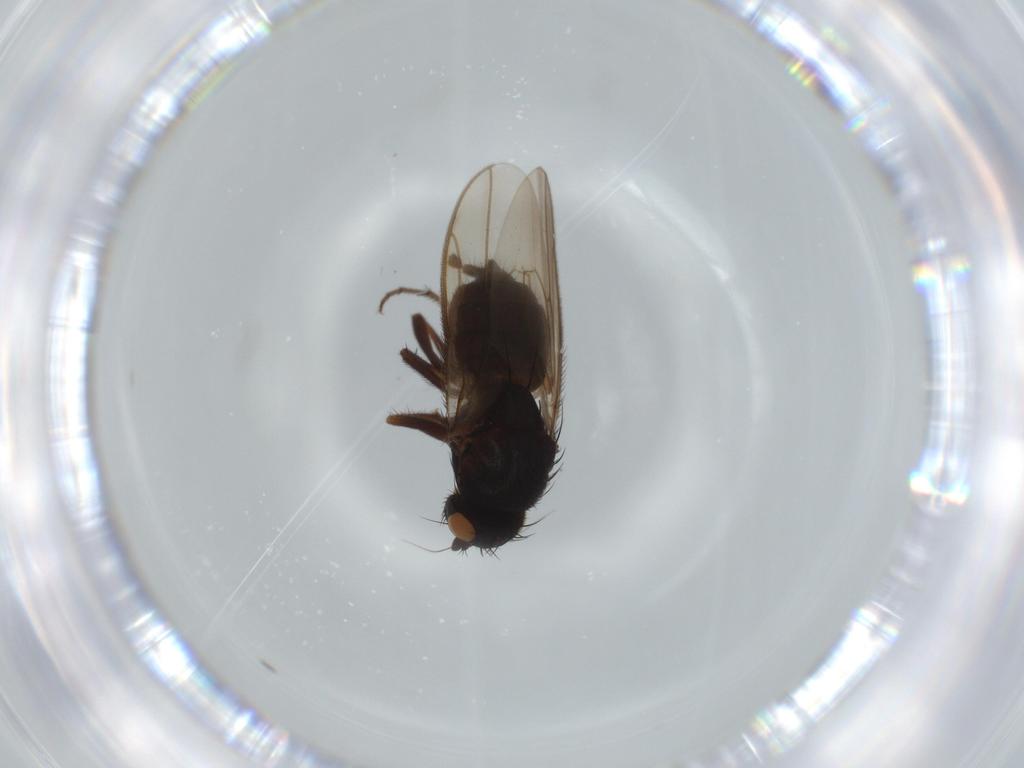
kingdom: Animalia
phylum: Arthropoda
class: Insecta
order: Diptera
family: Sphaeroceridae
